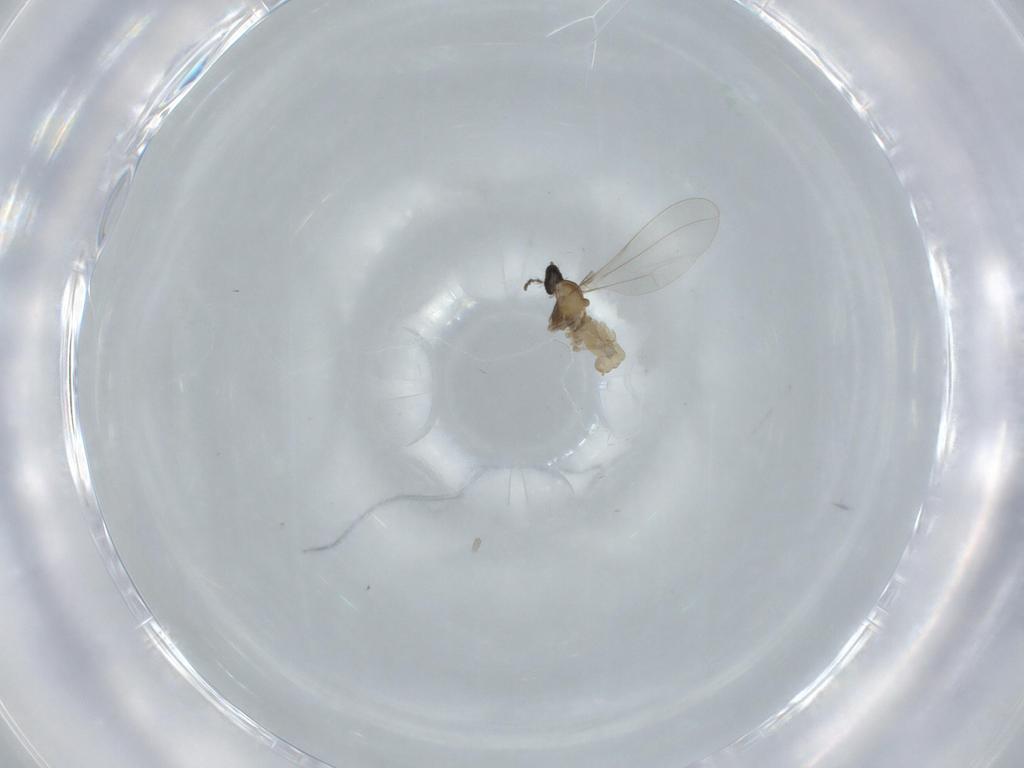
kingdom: Animalia
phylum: Arthropoda
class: Insecta
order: Diptera
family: Cecidomyiidae
